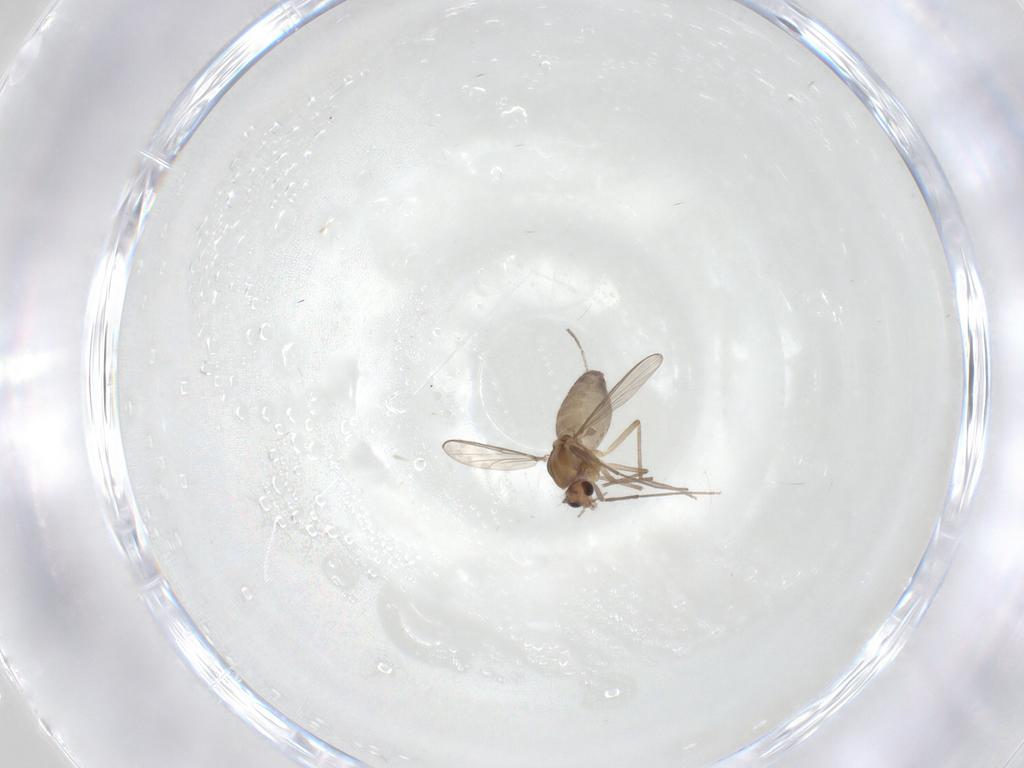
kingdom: Animalia
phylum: Arthropoda
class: Insecta
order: Diptera
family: Chironomidae
